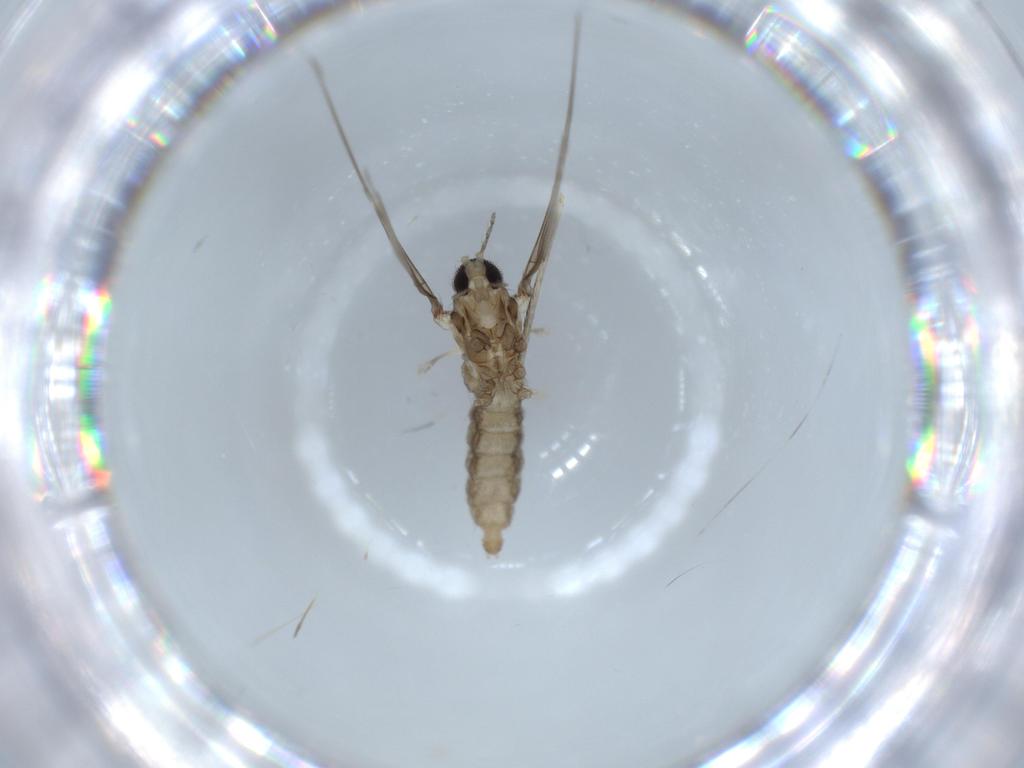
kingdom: Animalia
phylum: Arthropoda
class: Insecta
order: Diptera
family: Cecidomyiidae
